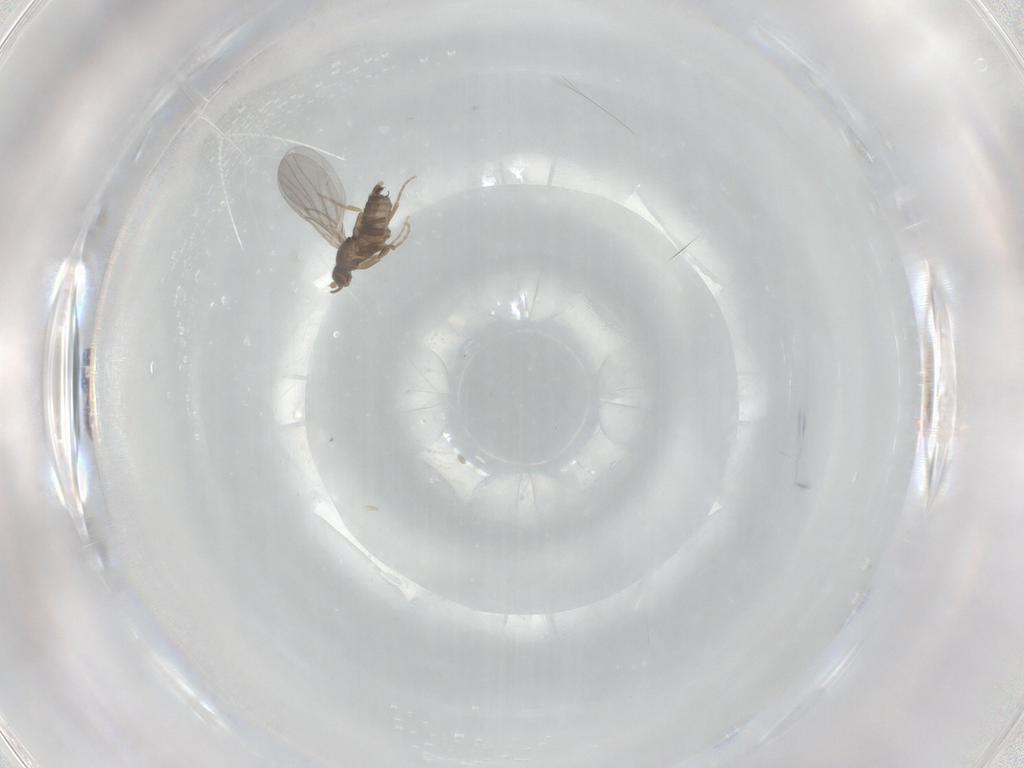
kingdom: Animalia
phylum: Arthropoda
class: Insecta
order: Diptera
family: Phoridae
